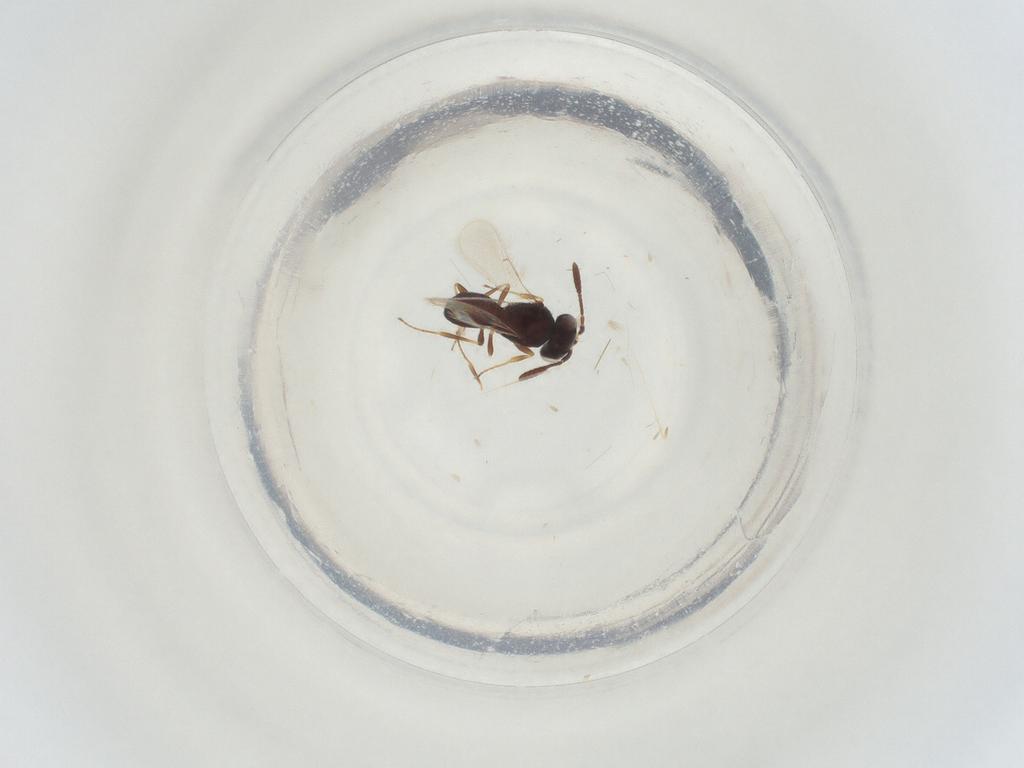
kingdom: Animalia
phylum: Arthropoda
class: Insecta
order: Hymenoptera
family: Scelionidae
